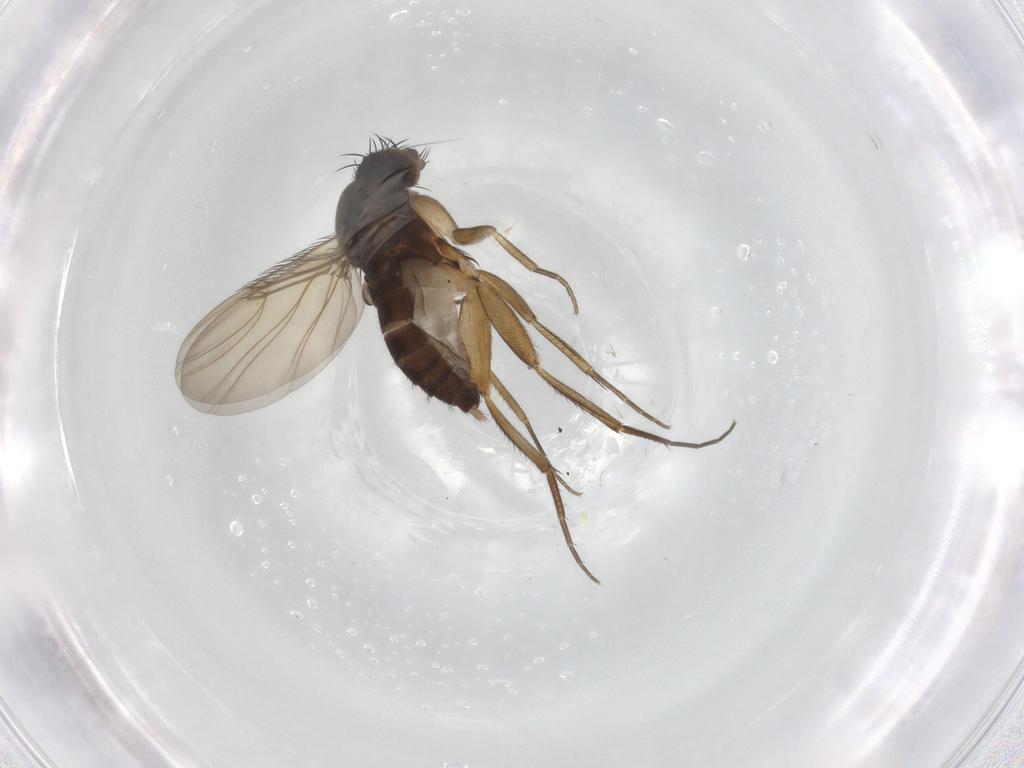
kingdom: Animalia
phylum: Arthropoda
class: Insecta
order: Diptera
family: Phoridae
